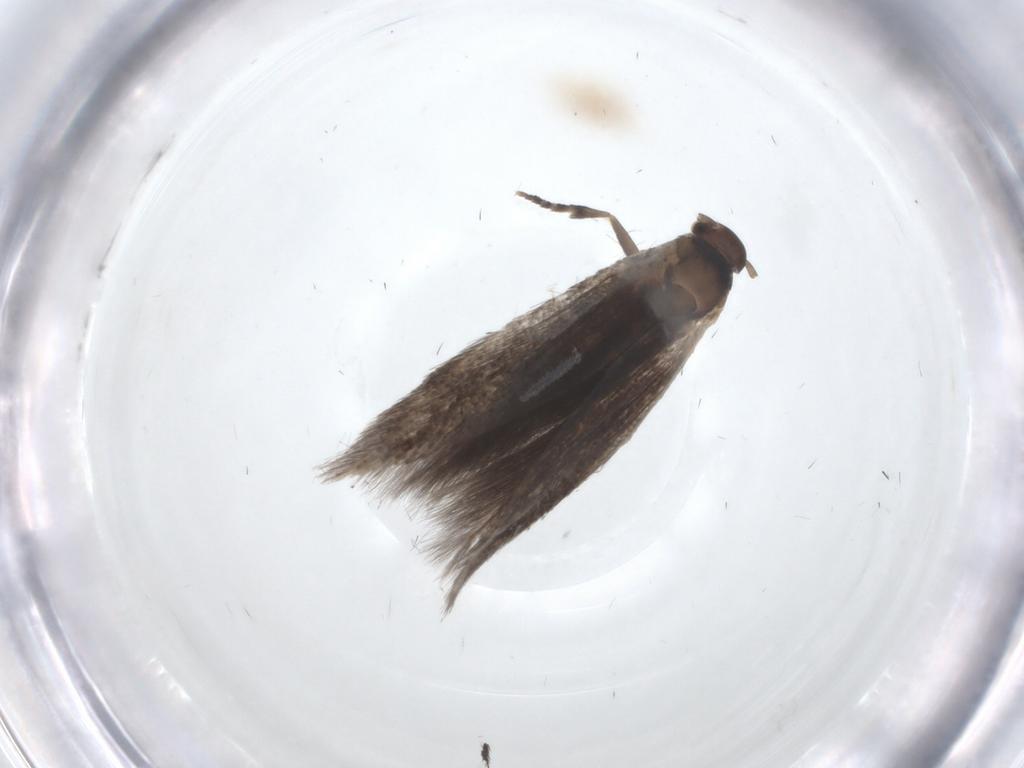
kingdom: Animalia
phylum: Arthropoda
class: Insecta
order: Lepidoptera
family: Elachistidae
